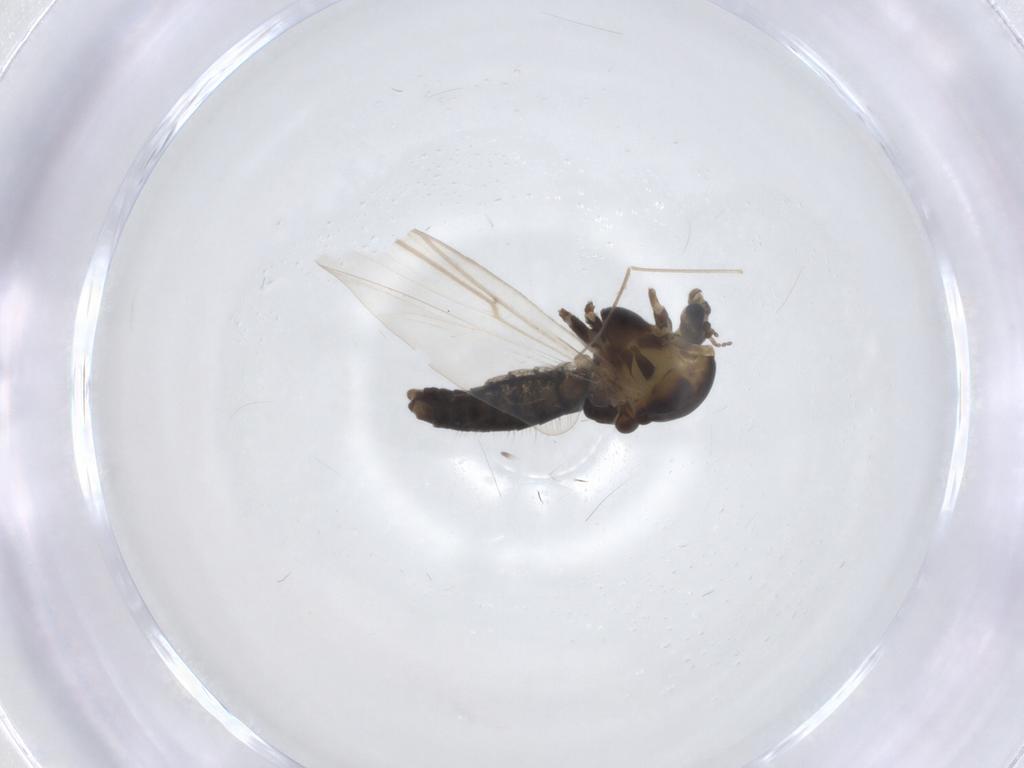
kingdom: Animalia
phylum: Arthropoda
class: Insecta
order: Diptera
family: Chironomidae
